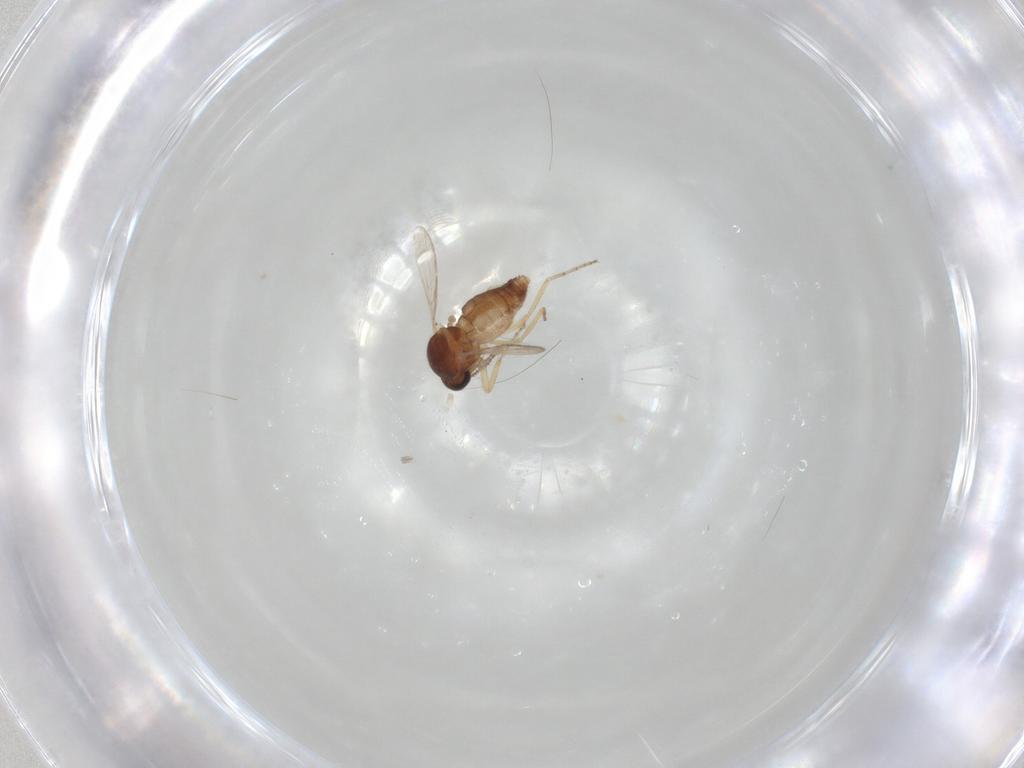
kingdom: Animalia
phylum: Arthropoda
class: Insecta
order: Diptera
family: Ceratopogonidae
